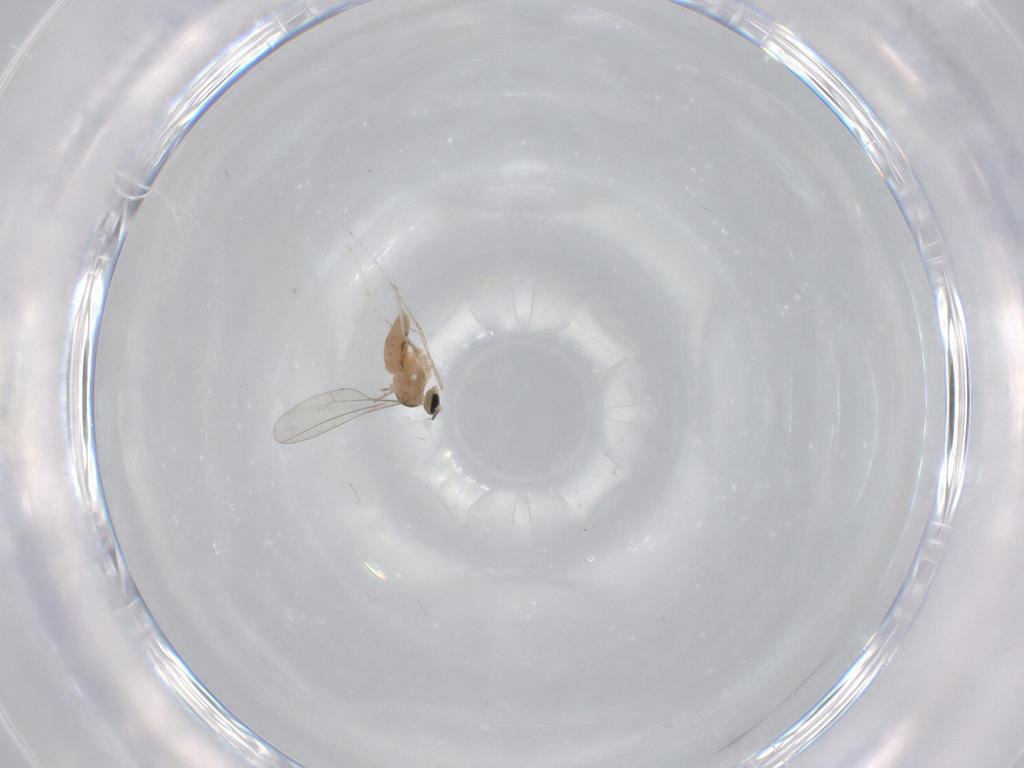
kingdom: Animalia
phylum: Arthropoda
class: Insecta
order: Diptera
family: Cecidomyiidae
